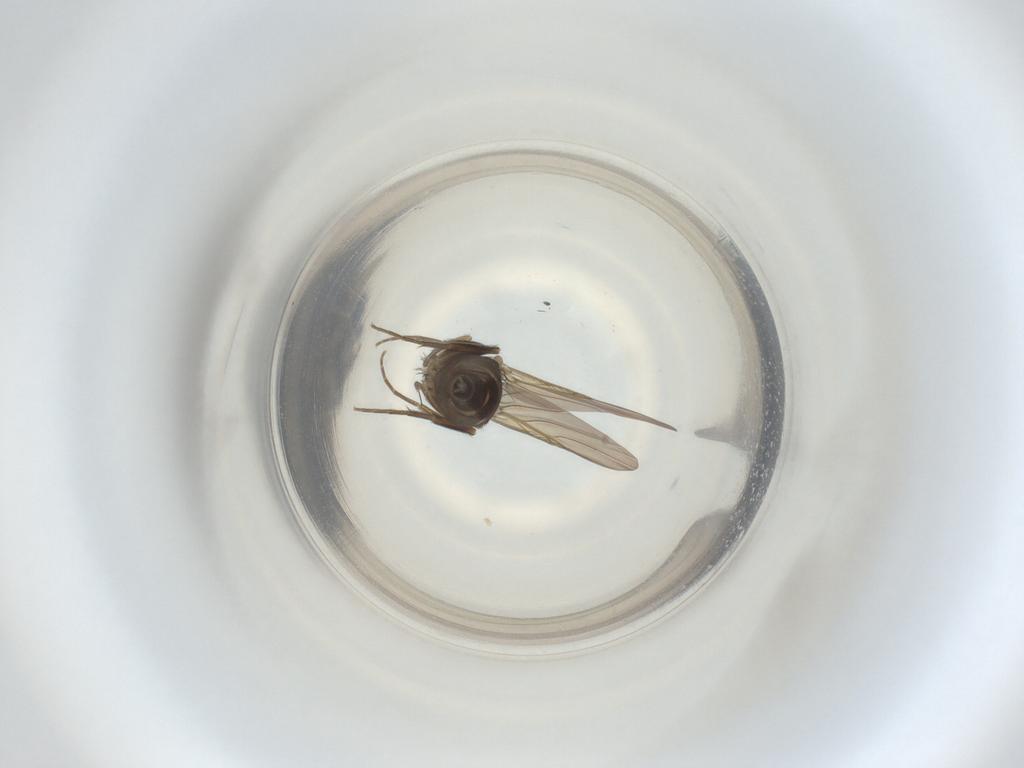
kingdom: Animalia
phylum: Arthropoda
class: Insecta
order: Diptera
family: Phoridae
